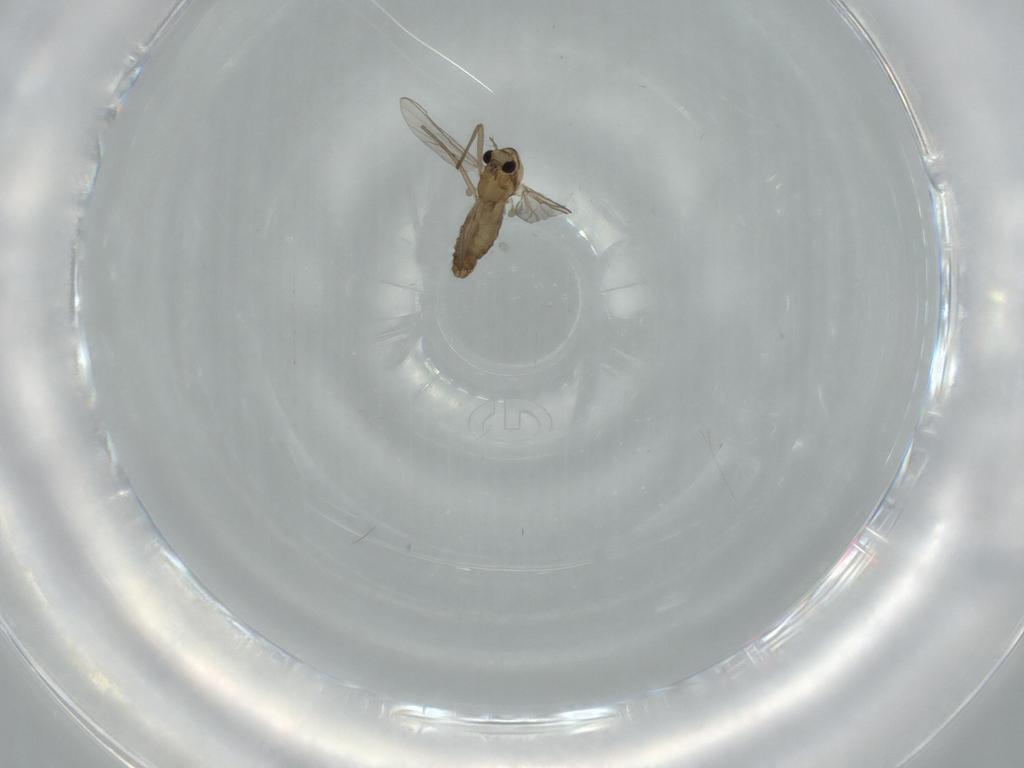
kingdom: Animalia
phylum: Arthropoda
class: Insecta
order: Diptera
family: Chironomidae
